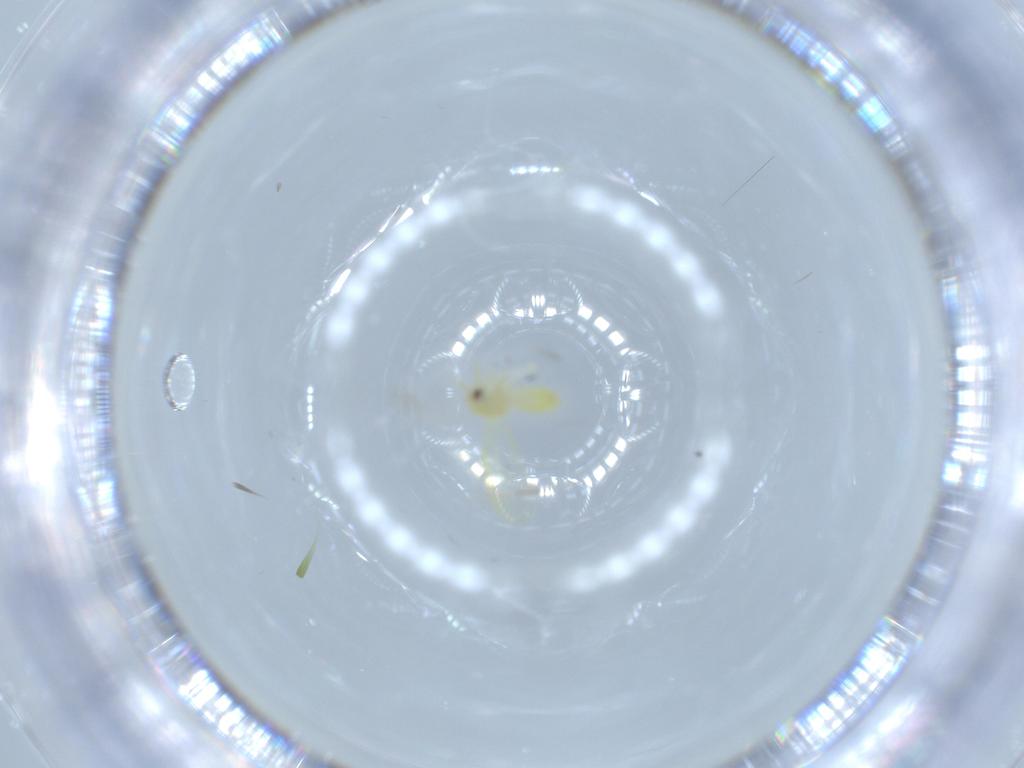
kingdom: Animalia
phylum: Arthropoda
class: Insecta
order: Hemiptera
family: Aleyrodidae
